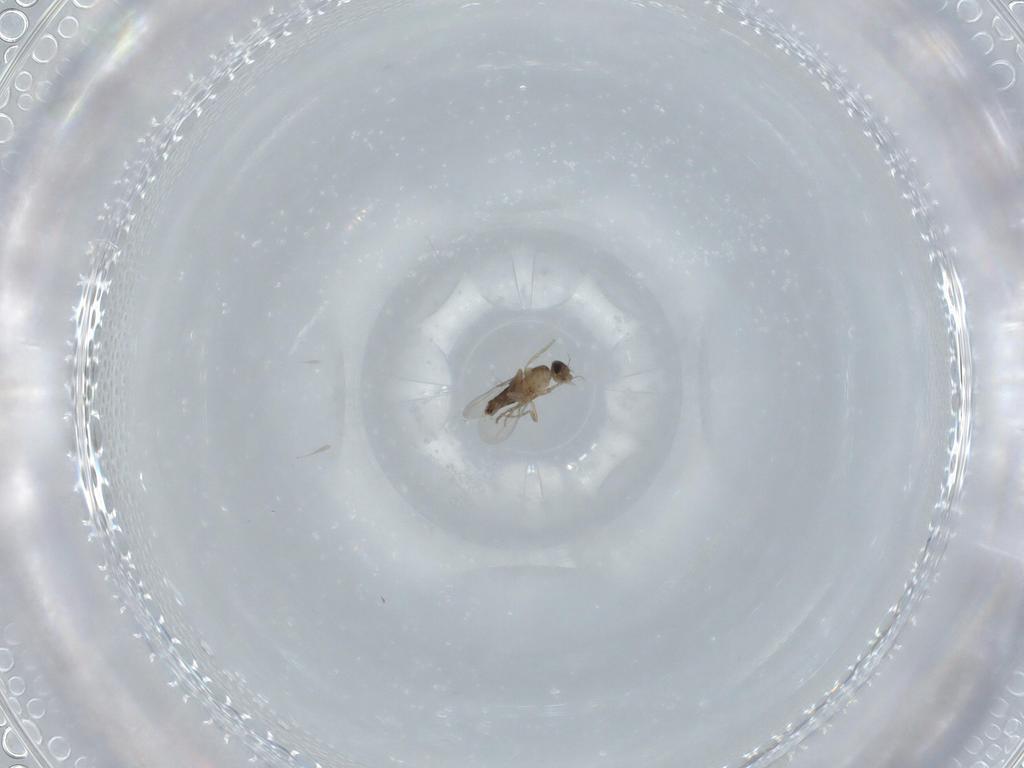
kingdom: Animalia
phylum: Arthropoda
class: Insecta
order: Diptera
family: Phoridae
